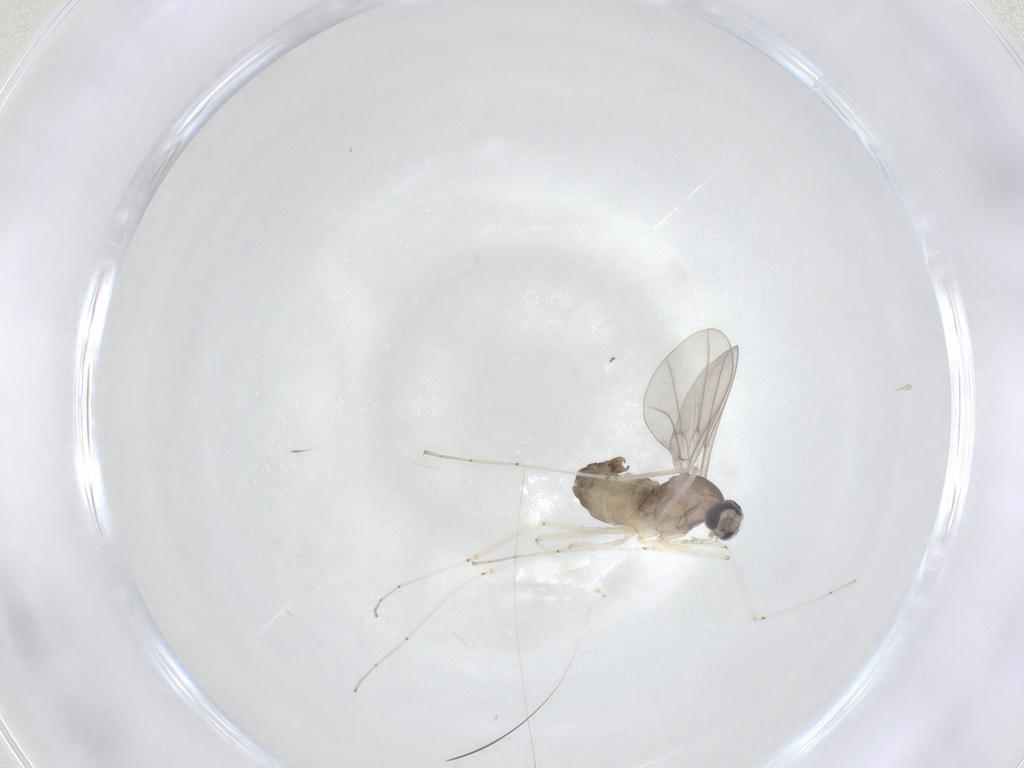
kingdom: Animalia
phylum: Arthropoda
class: Insecta
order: Diptera
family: Cecidomyiidae
